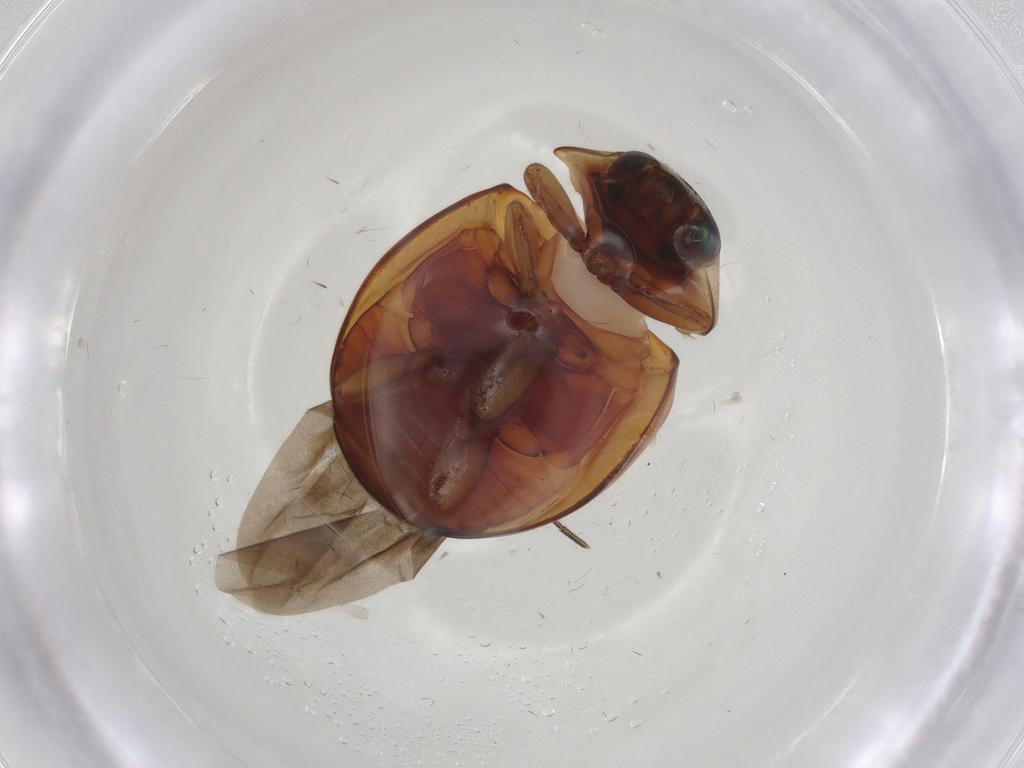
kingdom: Animalia
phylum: Arthropoda
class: Insecta
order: Coleoptera
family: Coccinellidae
